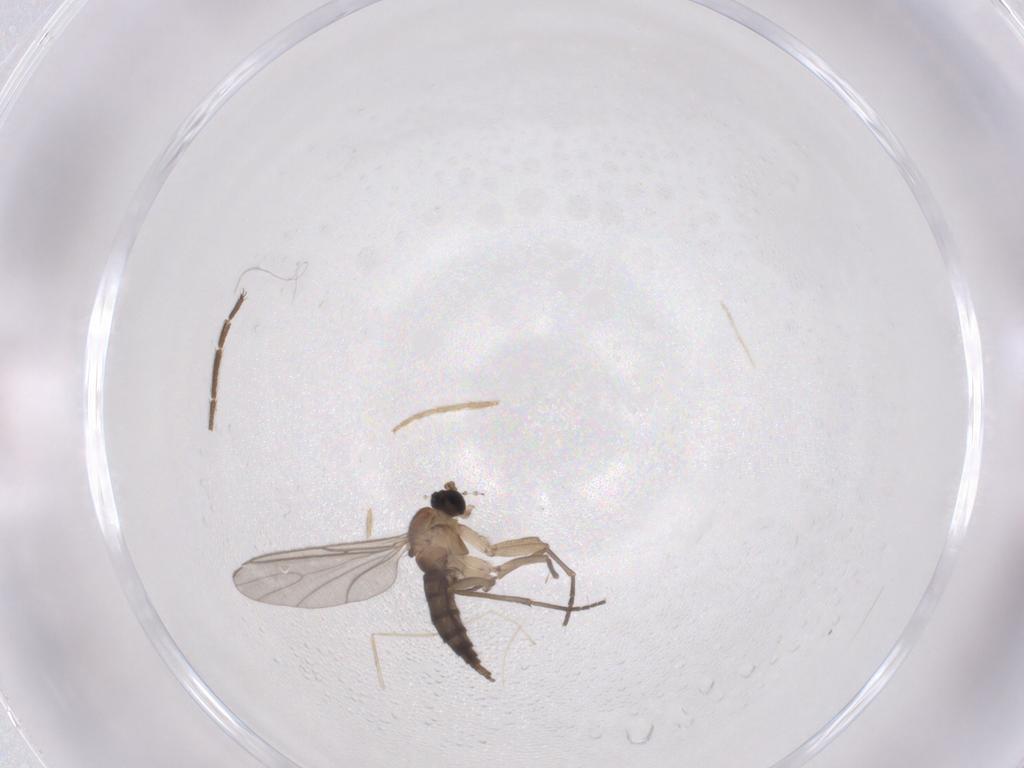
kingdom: Animalia
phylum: Arthropoda
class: Insecta
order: Diptera
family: Sciaridae
